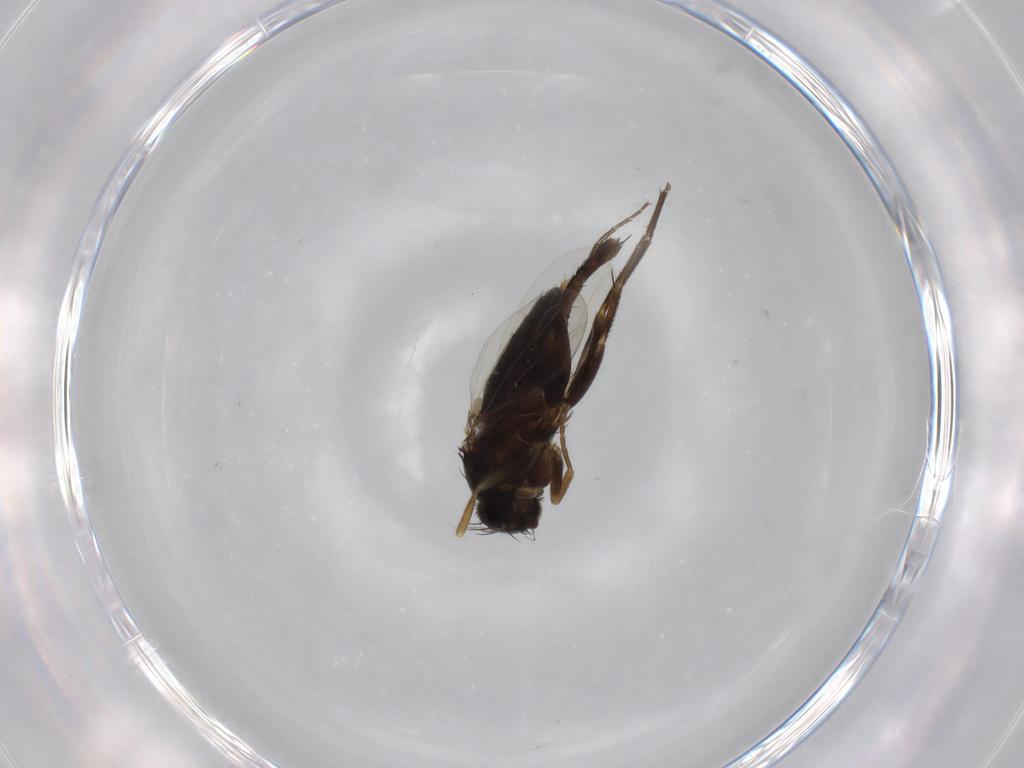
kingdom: Animalia
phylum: Arthropoda
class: Insecta
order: Diptera
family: Phoridae
